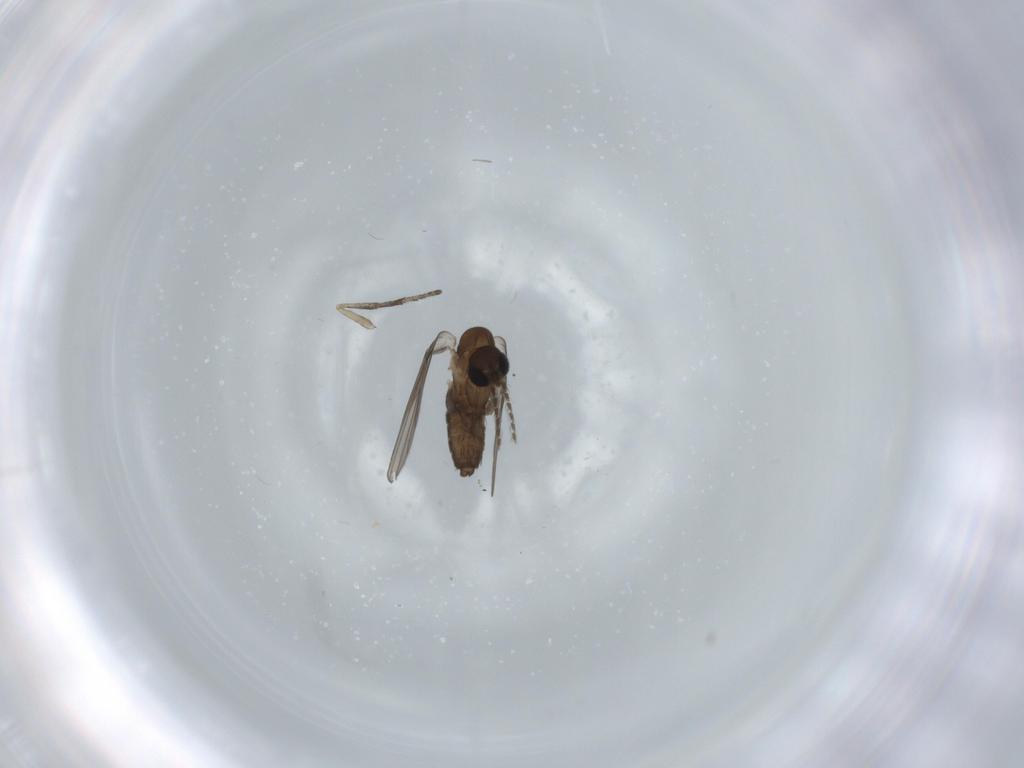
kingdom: Animalia
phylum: Arthropoda
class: Insecta
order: Diptera
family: Psychodidae
